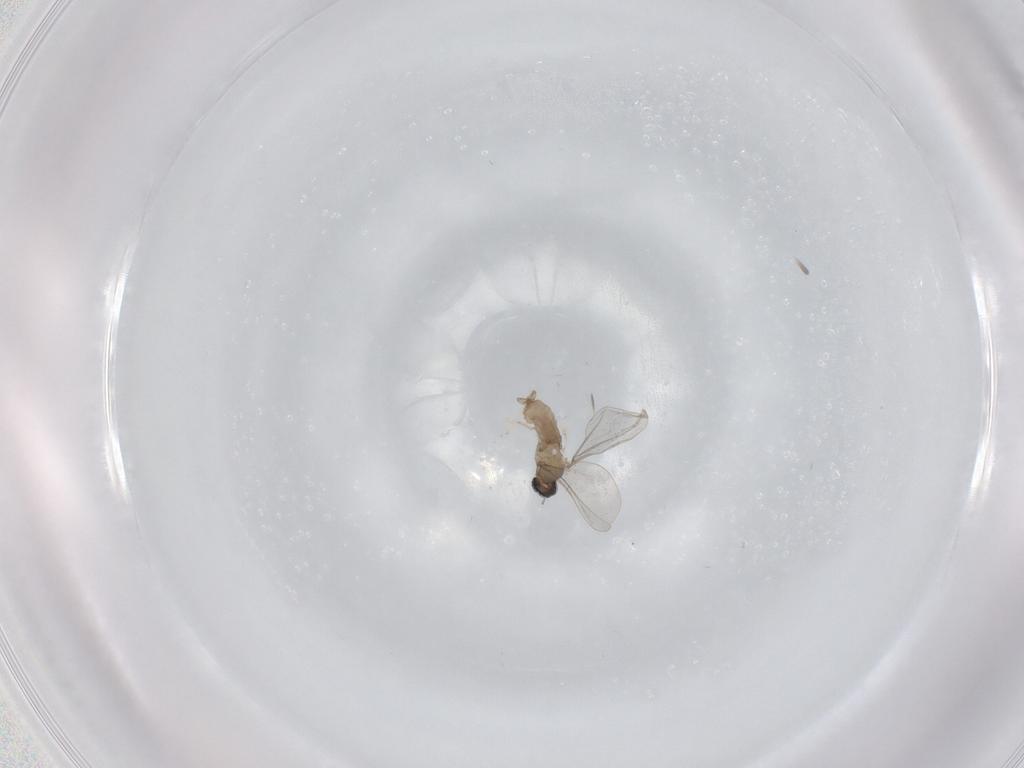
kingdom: Animalia
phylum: Arthropoda
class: Insecta
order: Diptera
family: Cecidomyiidae
